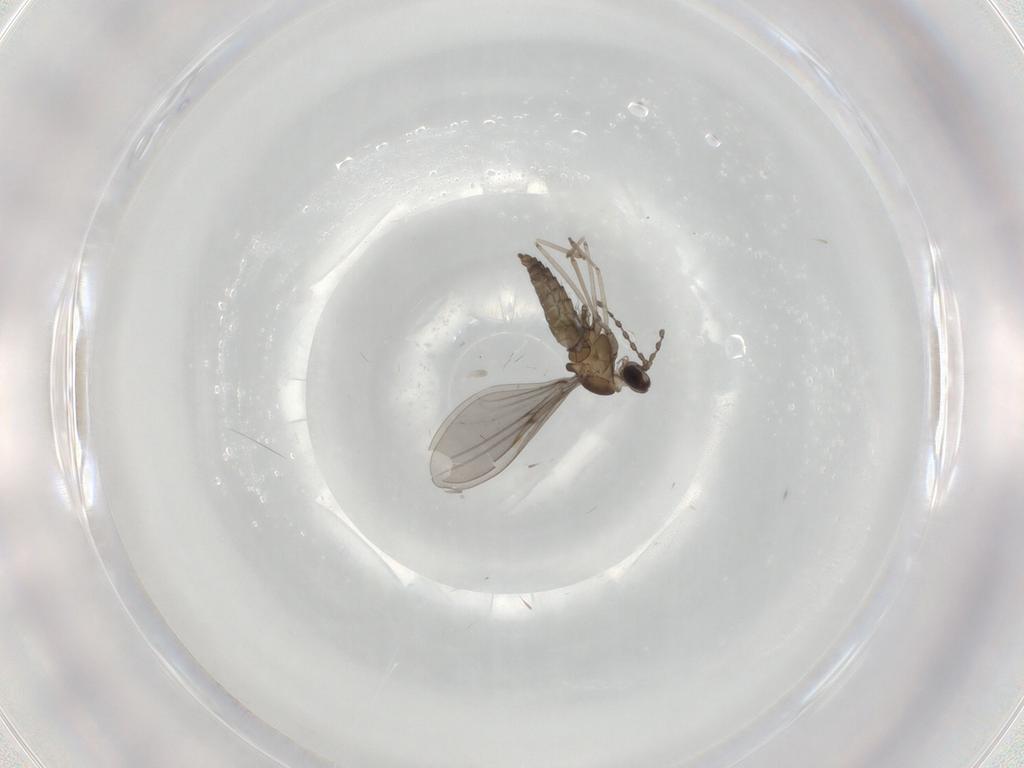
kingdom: Animalia
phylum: Arthropoda
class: Insecta
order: Diptera
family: Cecidomyiidae
